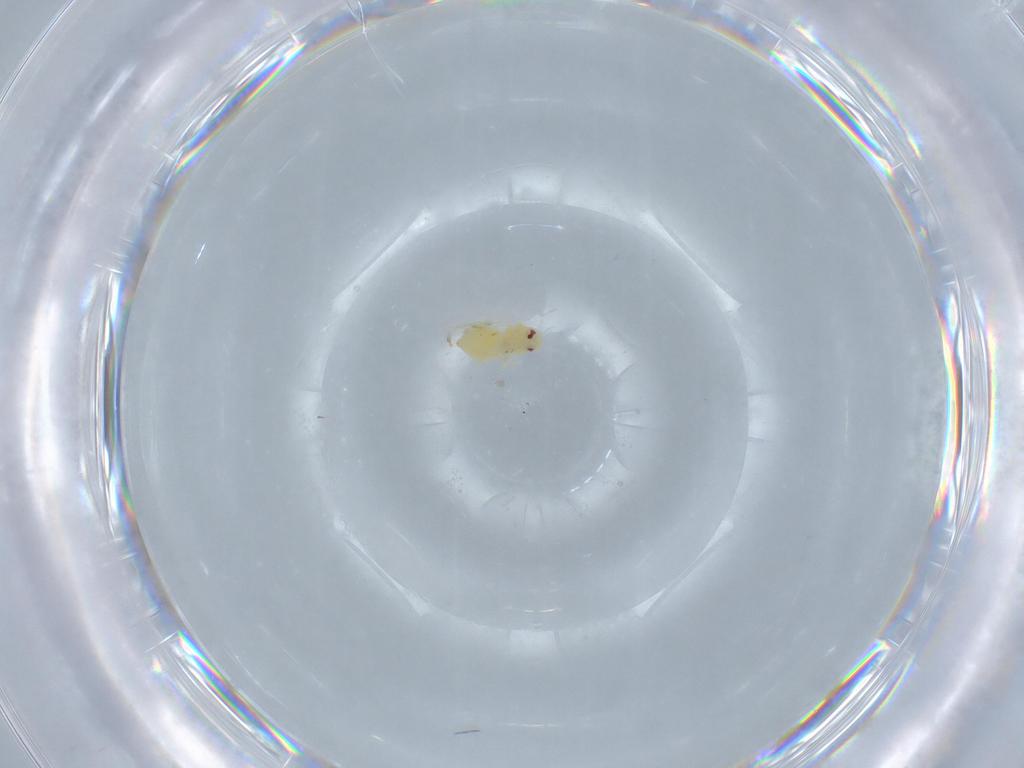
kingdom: Animalia
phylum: Arthropoda
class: Insecta
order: Hemiptera
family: Aleyrodidae
